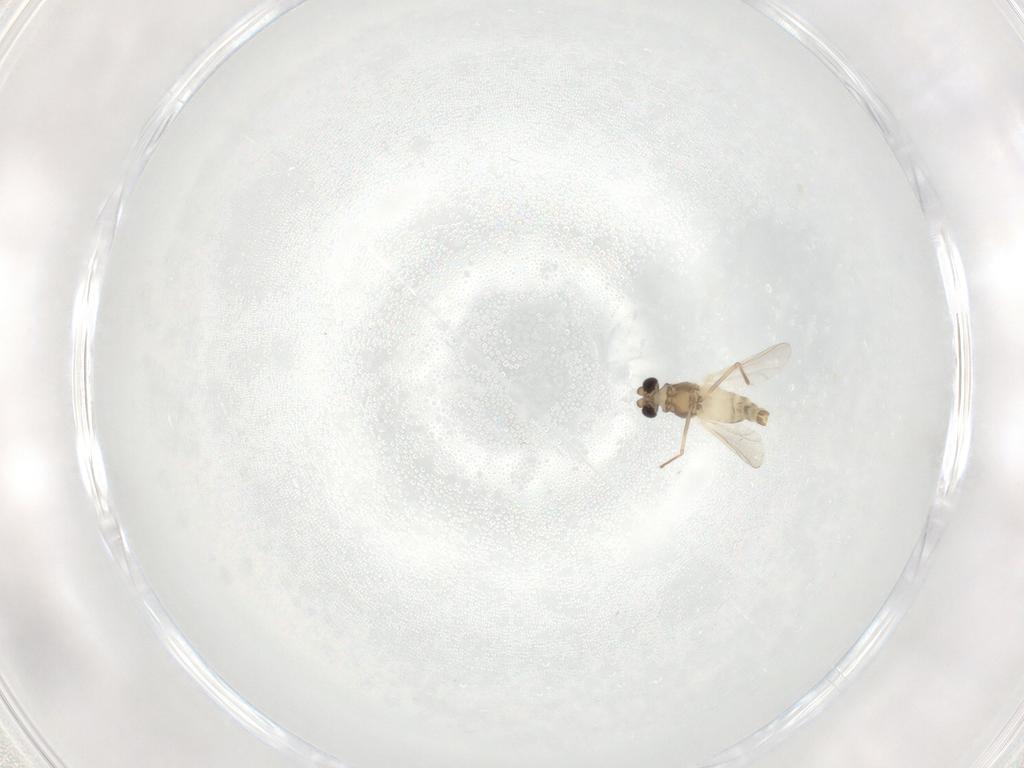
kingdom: Animalia
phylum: Arthropoda
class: Insecta
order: Diptera
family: Chironomidae
